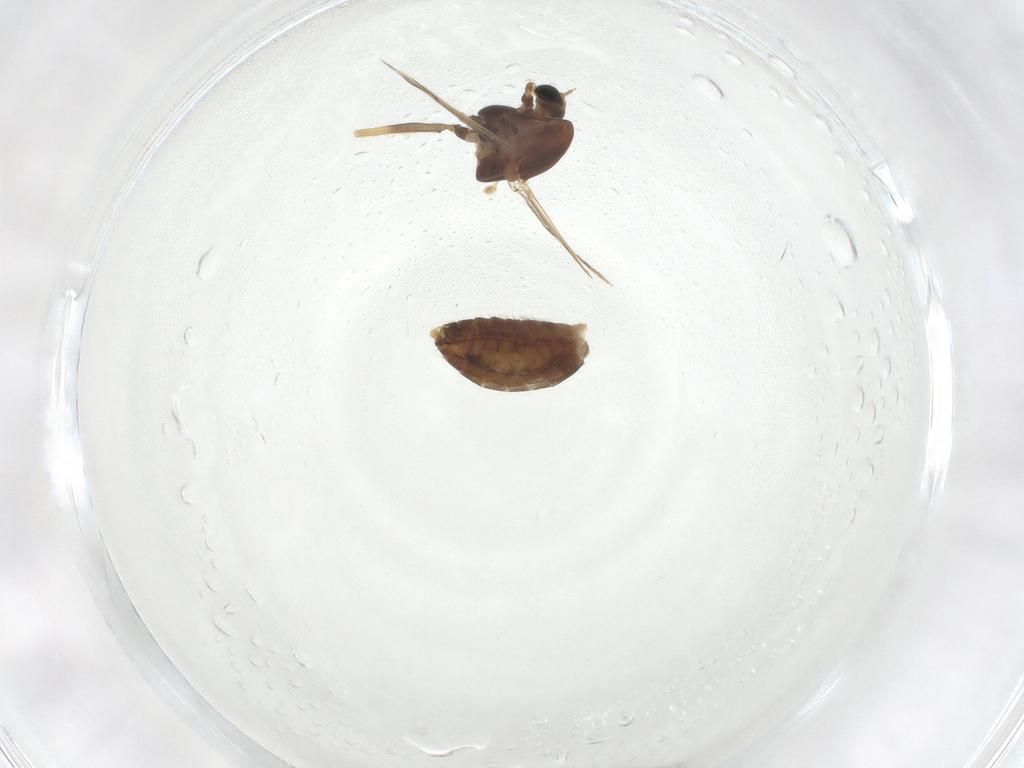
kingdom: Animalia
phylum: Arthropoda
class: Insecta
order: Diptera
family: Chironomidae
